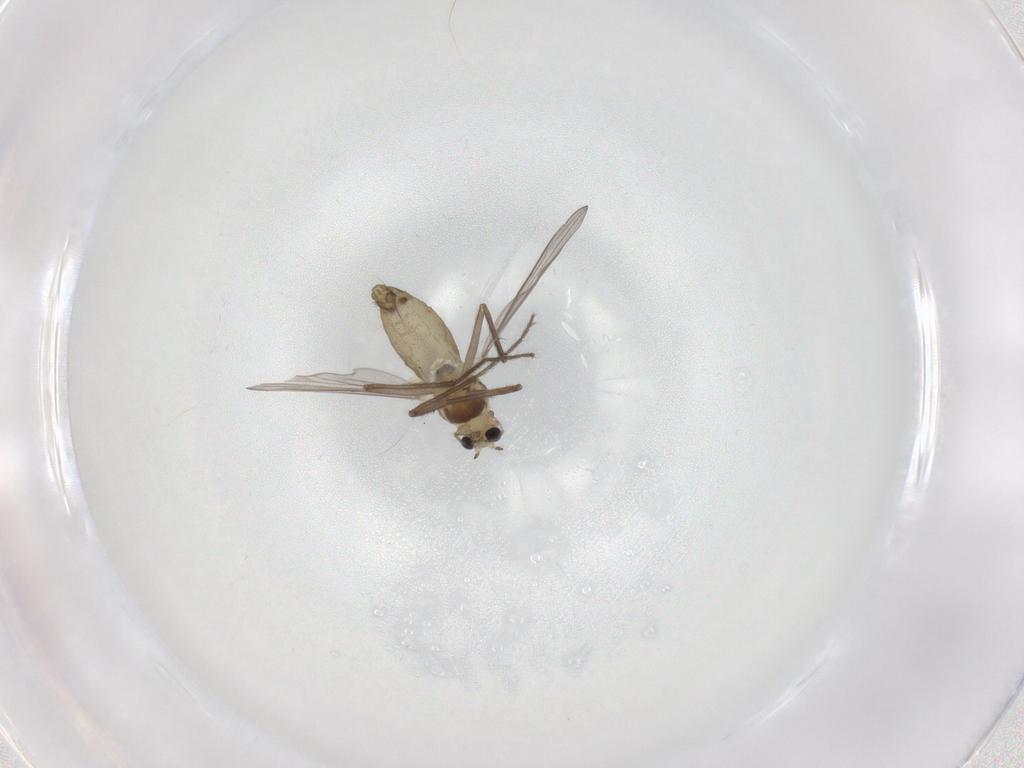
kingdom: Animalia
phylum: Arthropoda
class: Insecta
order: Diptera
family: Chironomidae
